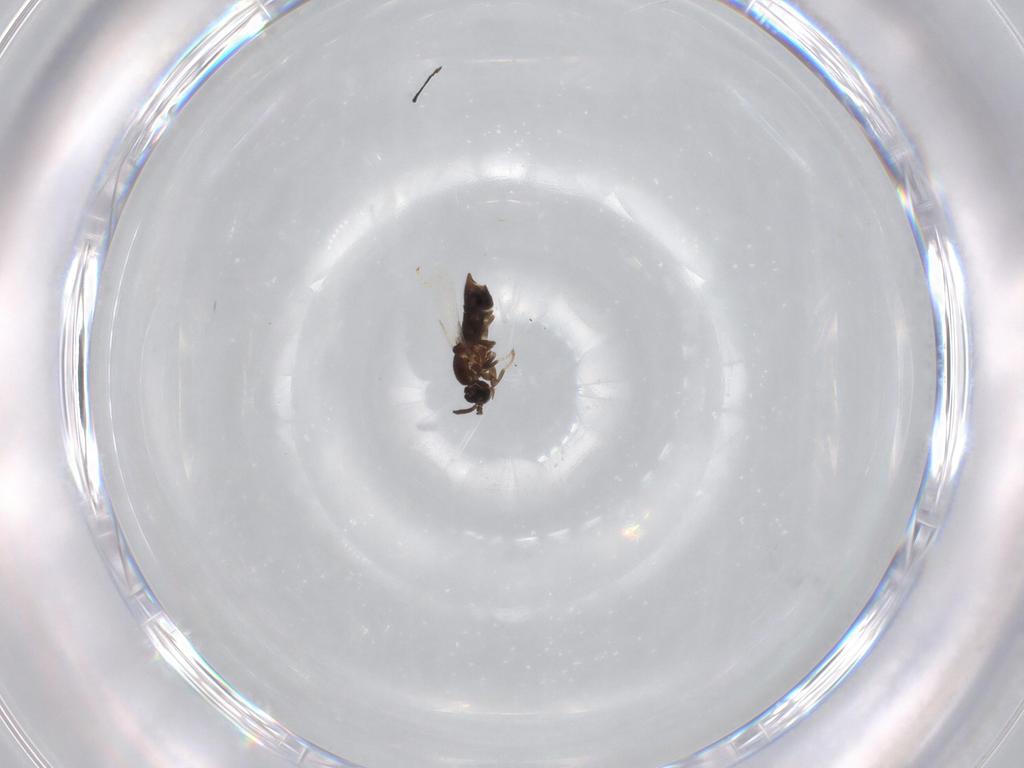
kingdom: Animalia
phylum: Arthropoda
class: Insecta
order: Diptera
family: Scatopsidae
